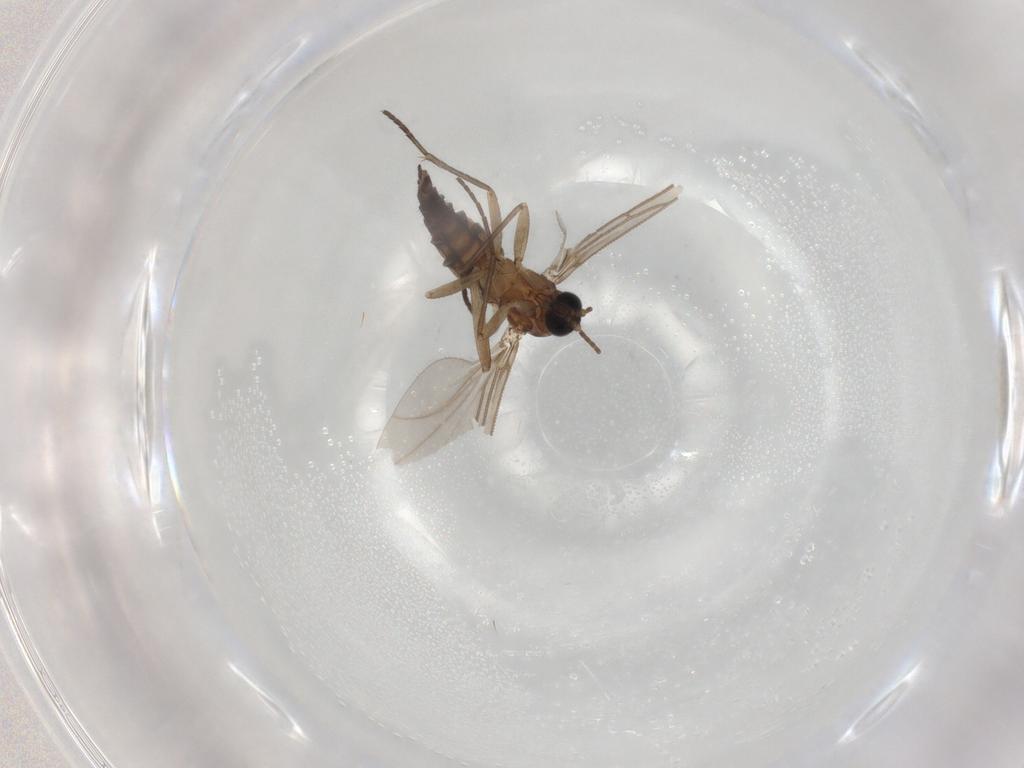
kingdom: Animalia
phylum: Arthropoda
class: Insecta
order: Diptera
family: Sciaridae
